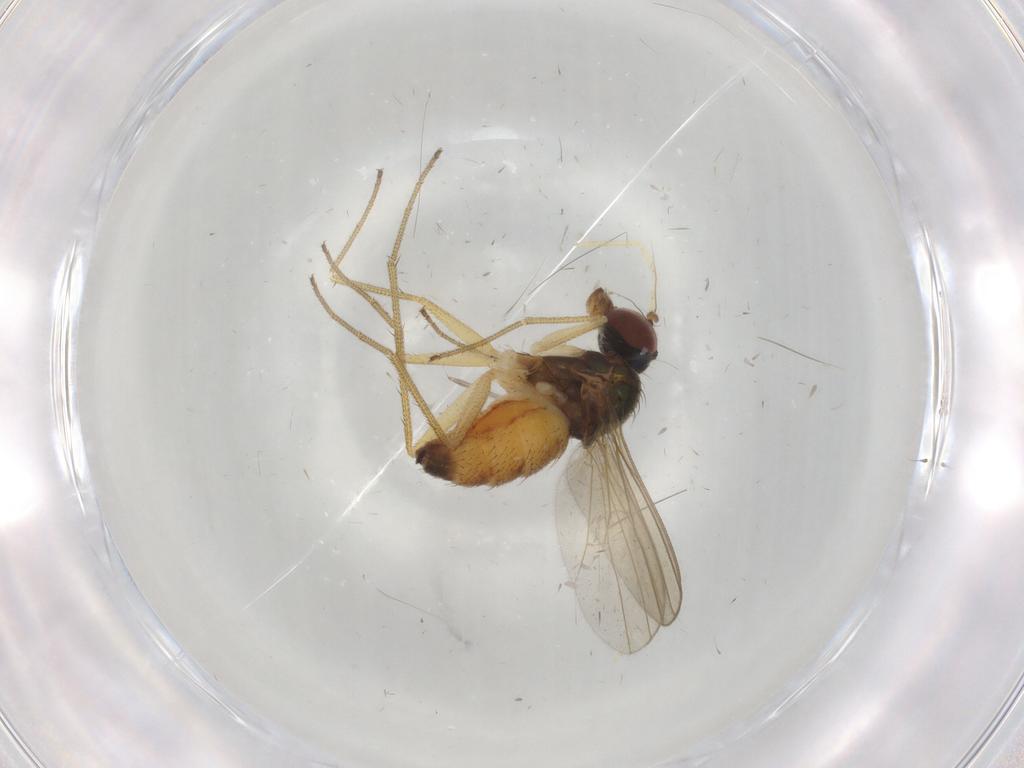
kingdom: Animalia
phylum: Arthropoda
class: Insecta
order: Diptera
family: Dolichopodidae
